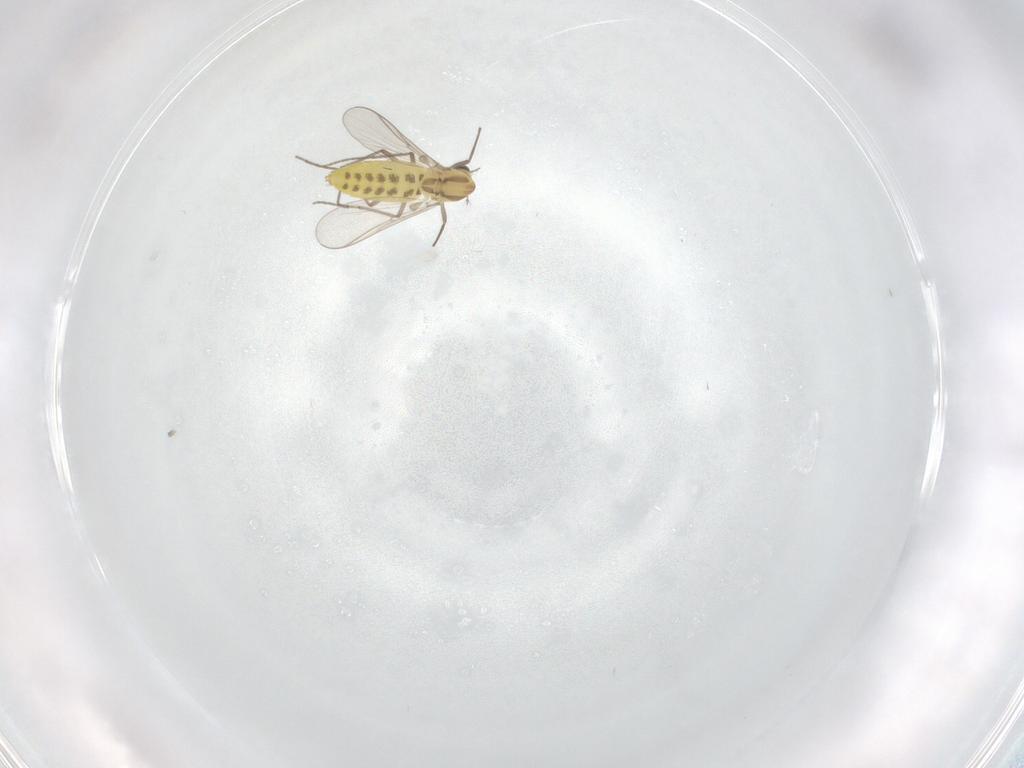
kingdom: Animalia
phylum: Arthropoda
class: Insecta
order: Diptera
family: Chironomidae
